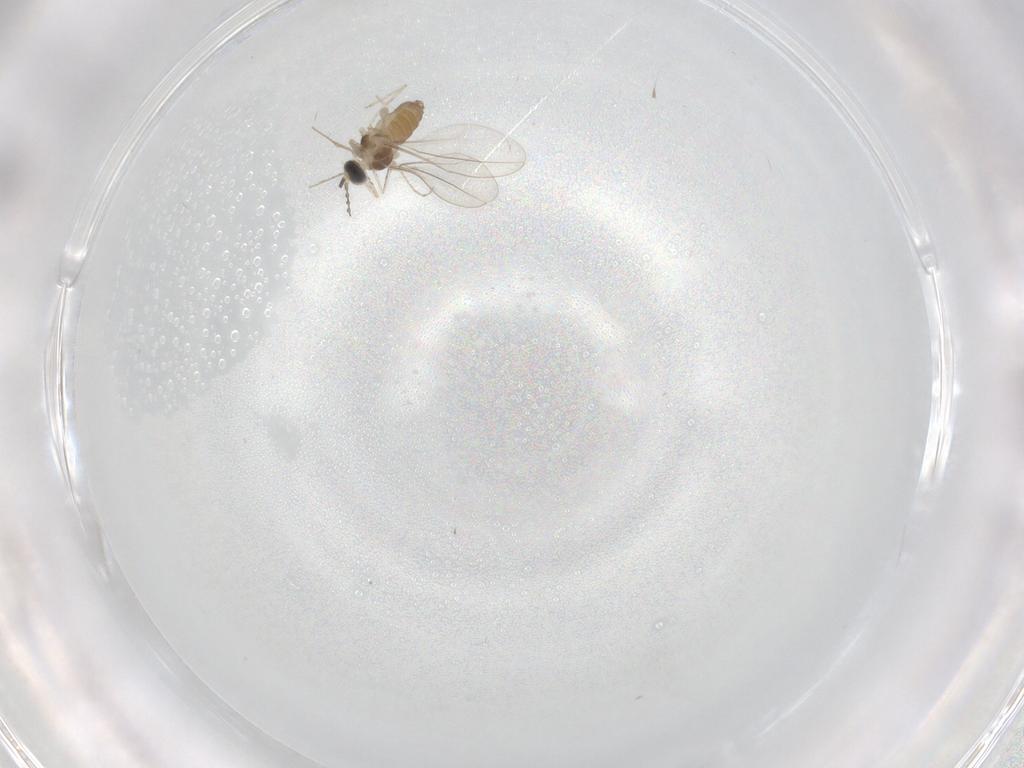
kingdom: Animalia
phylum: Arthropoda
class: Insecta
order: Diptera
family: Cecidomyiidae
